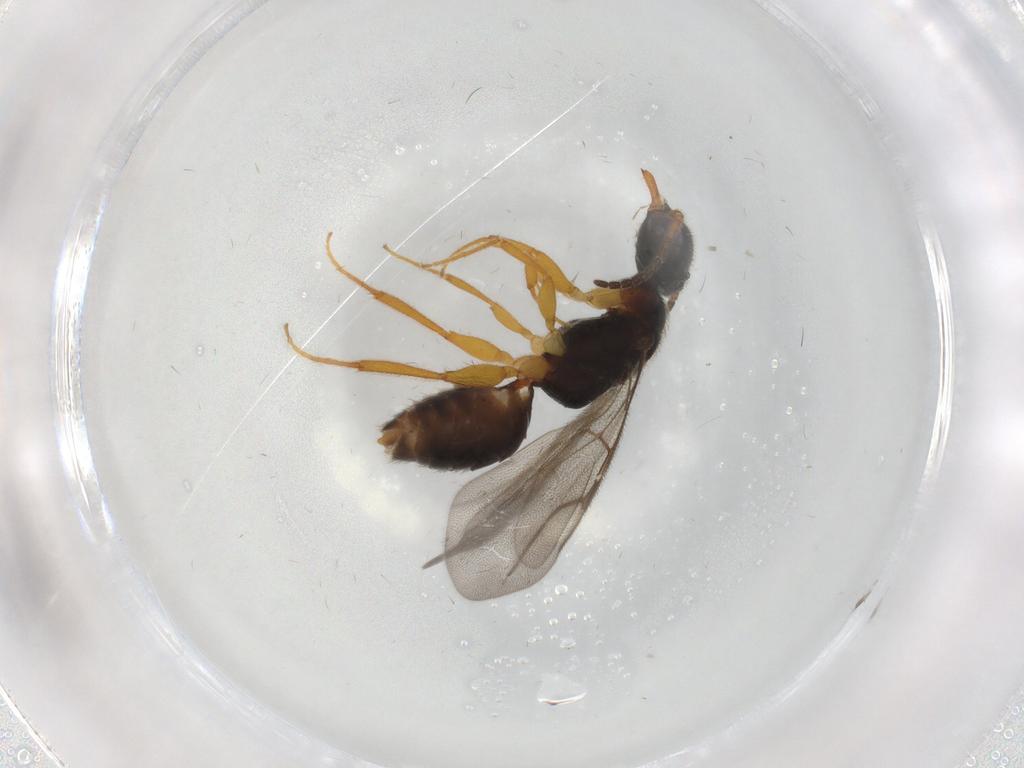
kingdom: Animalia
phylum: Arthropoda
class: Insecta
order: Hymenoptera
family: Bethylidae
